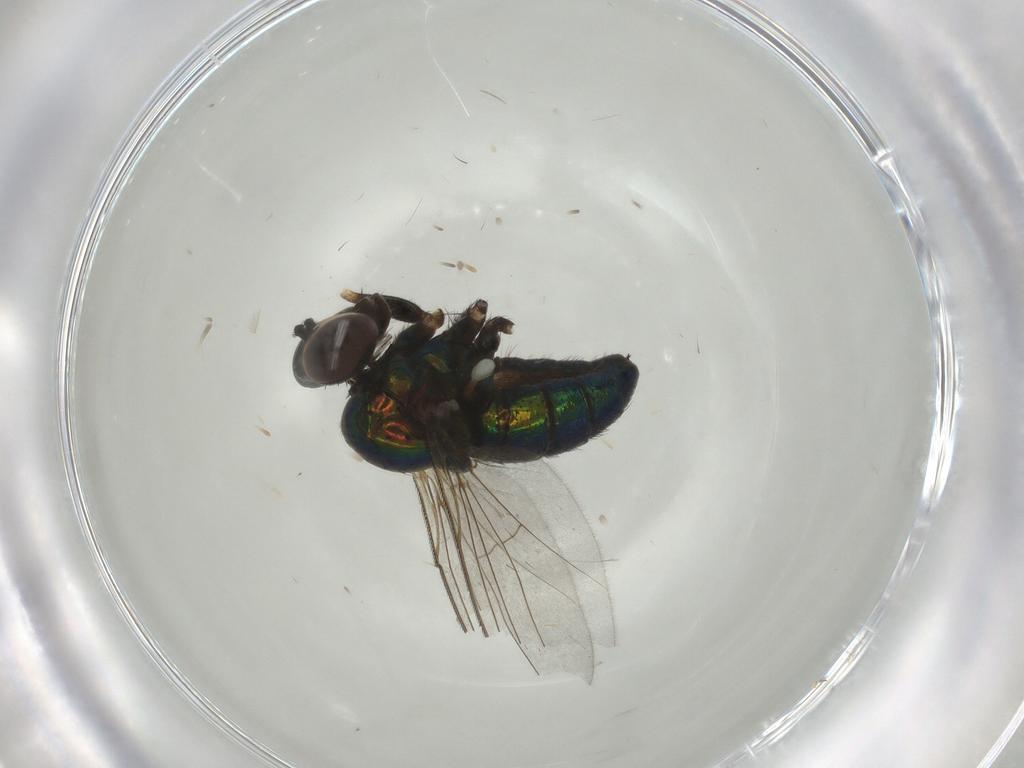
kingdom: Animalia
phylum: Arthropoda
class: Insecta
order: Diptera
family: Dolichopodidae
